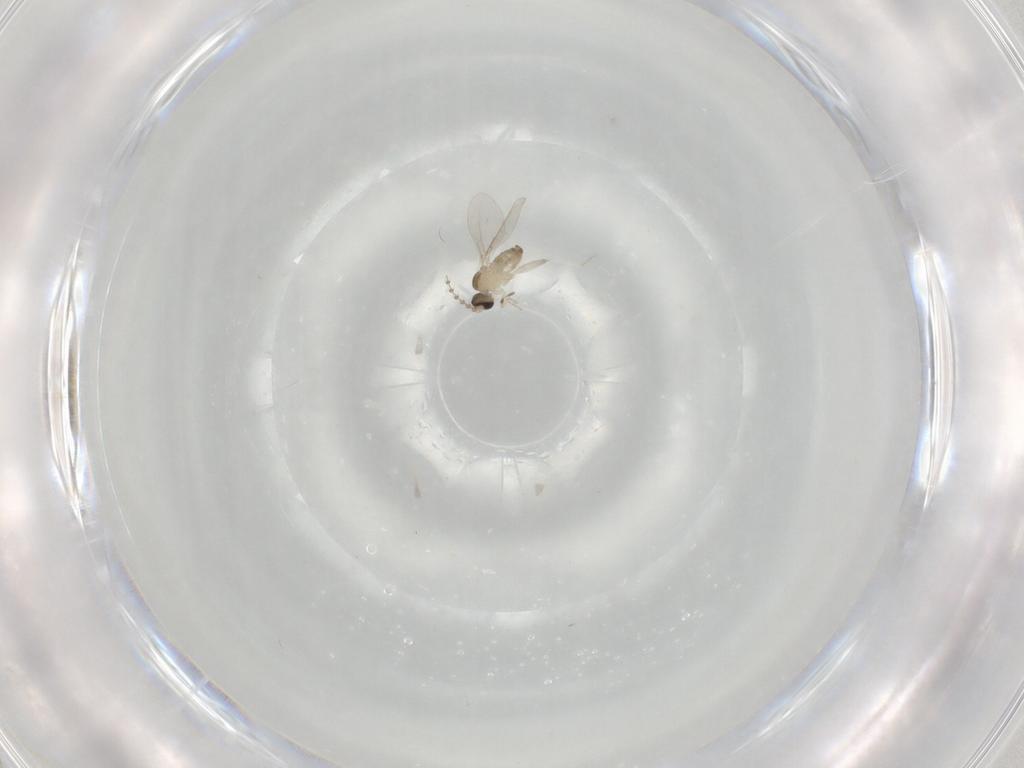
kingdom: Animalia
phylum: Arthropoda
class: Insecta
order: Diptera
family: Cecidomyiidae
